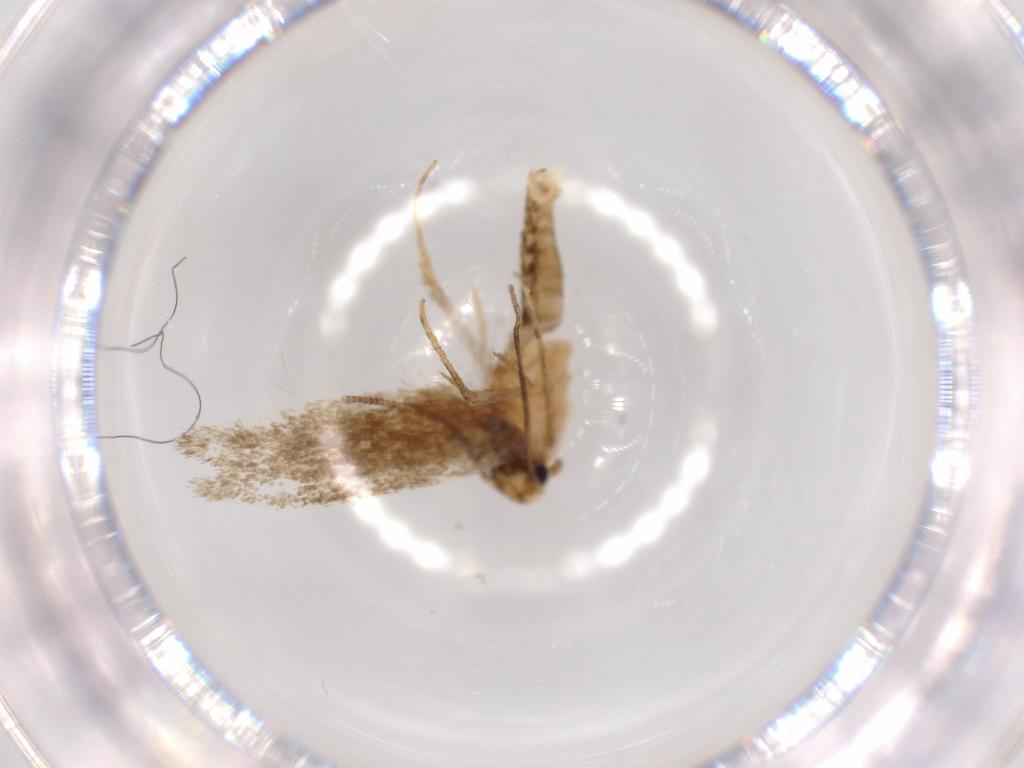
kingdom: Animalia
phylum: Arthropoda
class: Insecta
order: Lepidoptera
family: Tineidae
